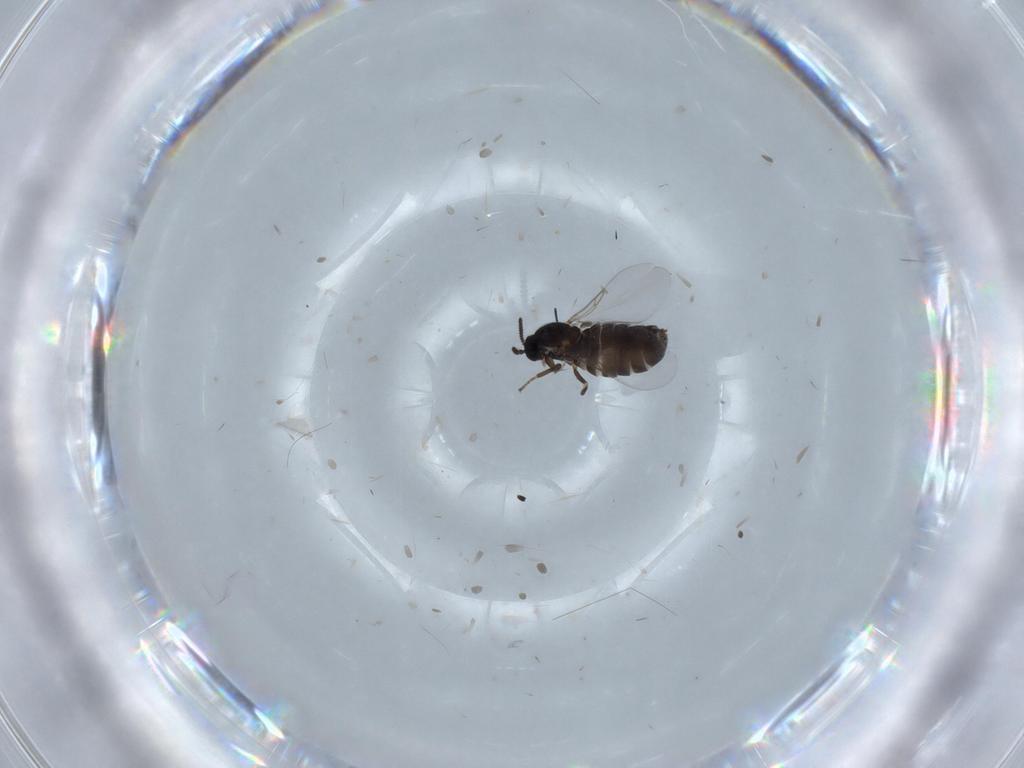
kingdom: Animalia
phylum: Arthropoda
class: Insecta
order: Diptera
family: Scatopsidae
